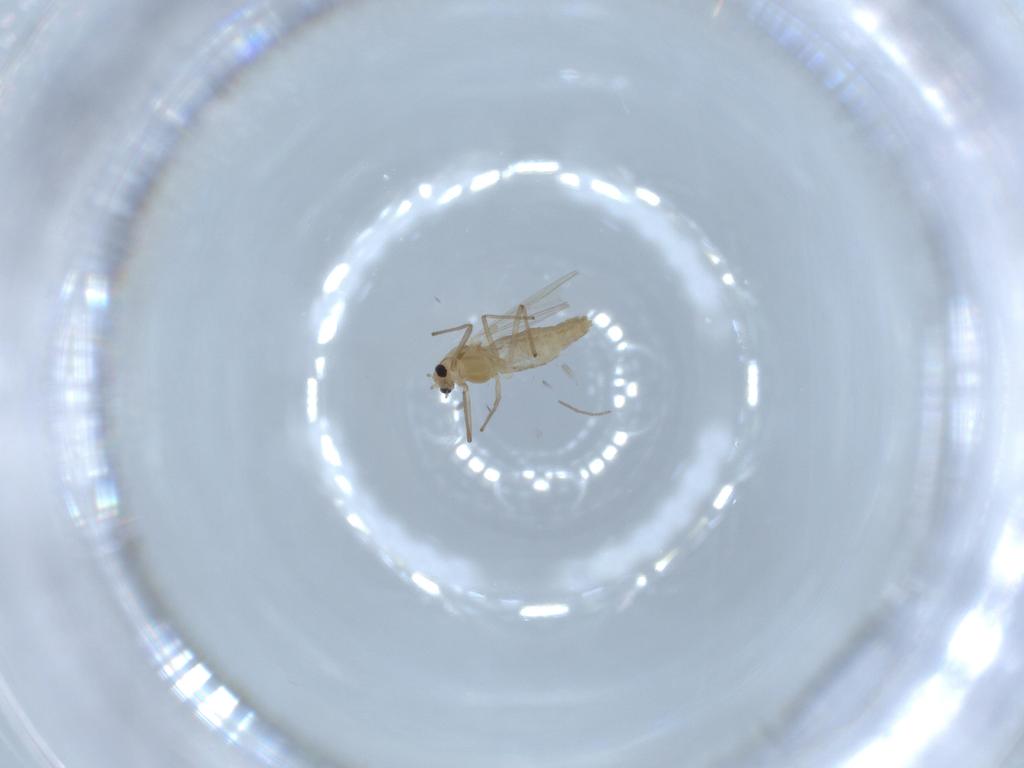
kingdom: Animalia
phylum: Arthropoda
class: Insecta
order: Diptera
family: Chironomidae
